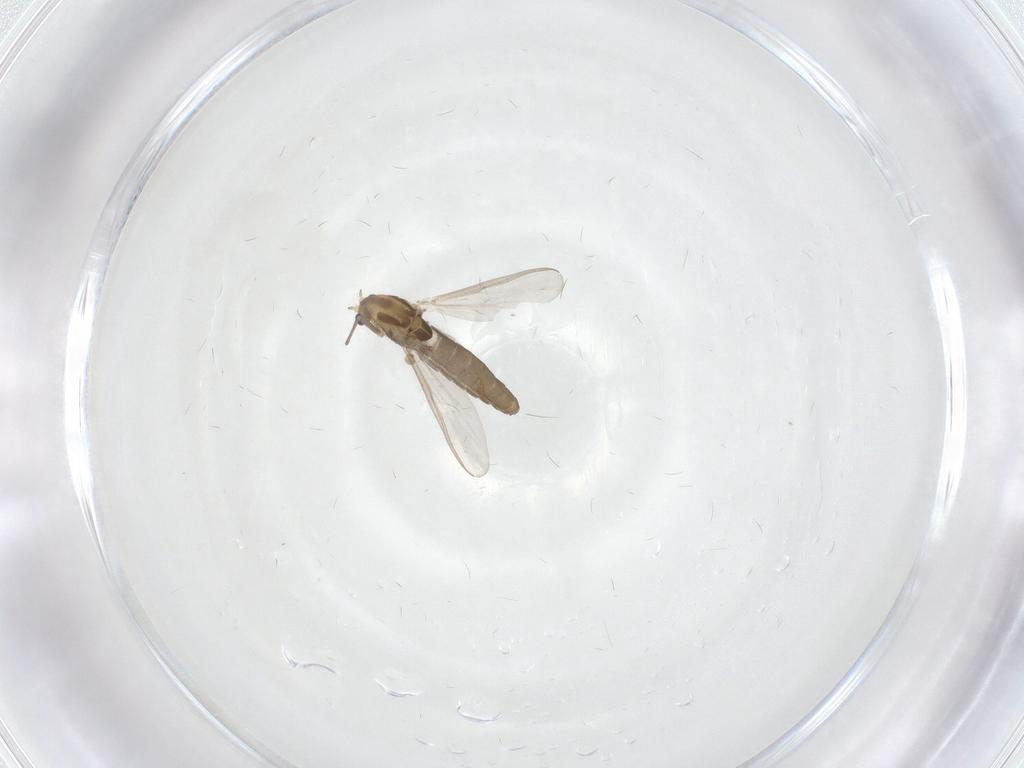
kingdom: Animalia
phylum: Arthropoda
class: Insecta
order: Diptera
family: Chironomidae
